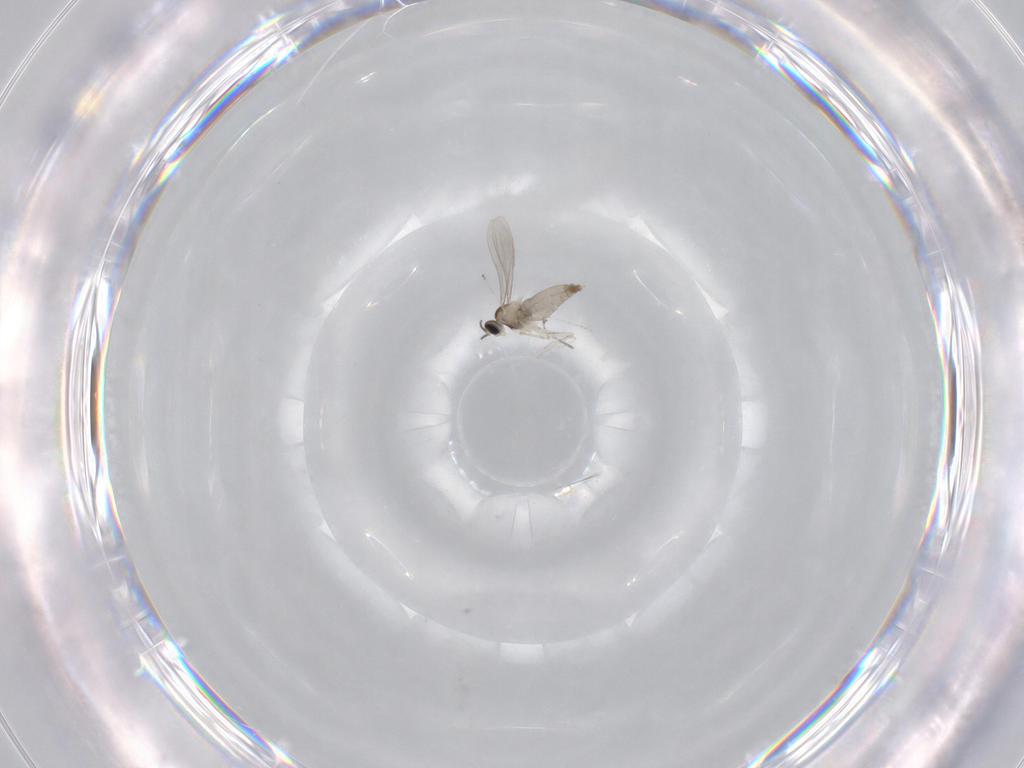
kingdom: Animalia
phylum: Arthropoda
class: Insecta
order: Diptera
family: Cecidomyiidae
